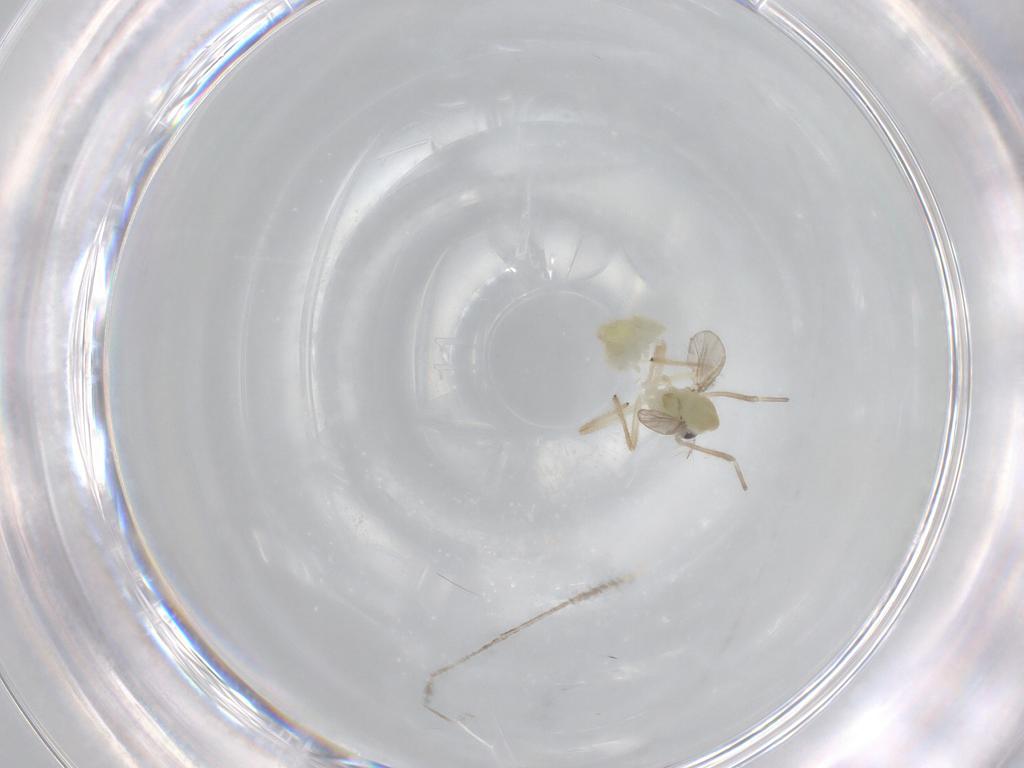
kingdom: Animalia
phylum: Arthropoda
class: Insecta
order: Diptera
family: Chironomidae
